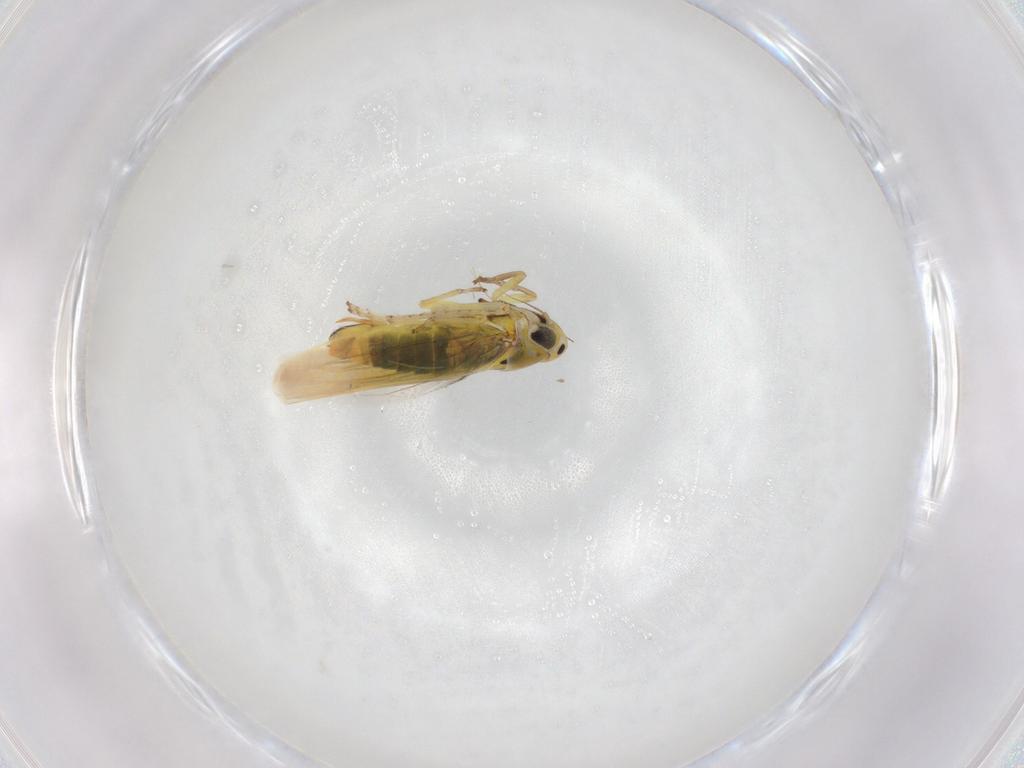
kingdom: Animalia
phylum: Arthropoda
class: Insecta
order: Hemiptera
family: Cicadellidae
